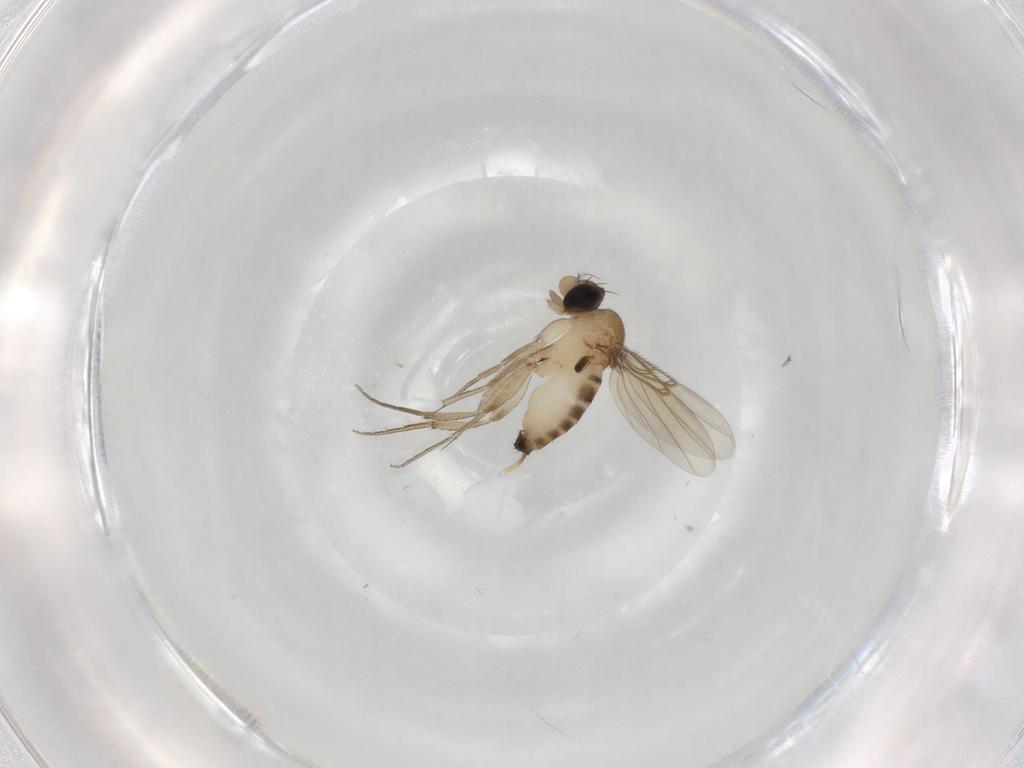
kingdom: Animalia
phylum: Arthropoda
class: Insecta
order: Diptera
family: Phoridae
